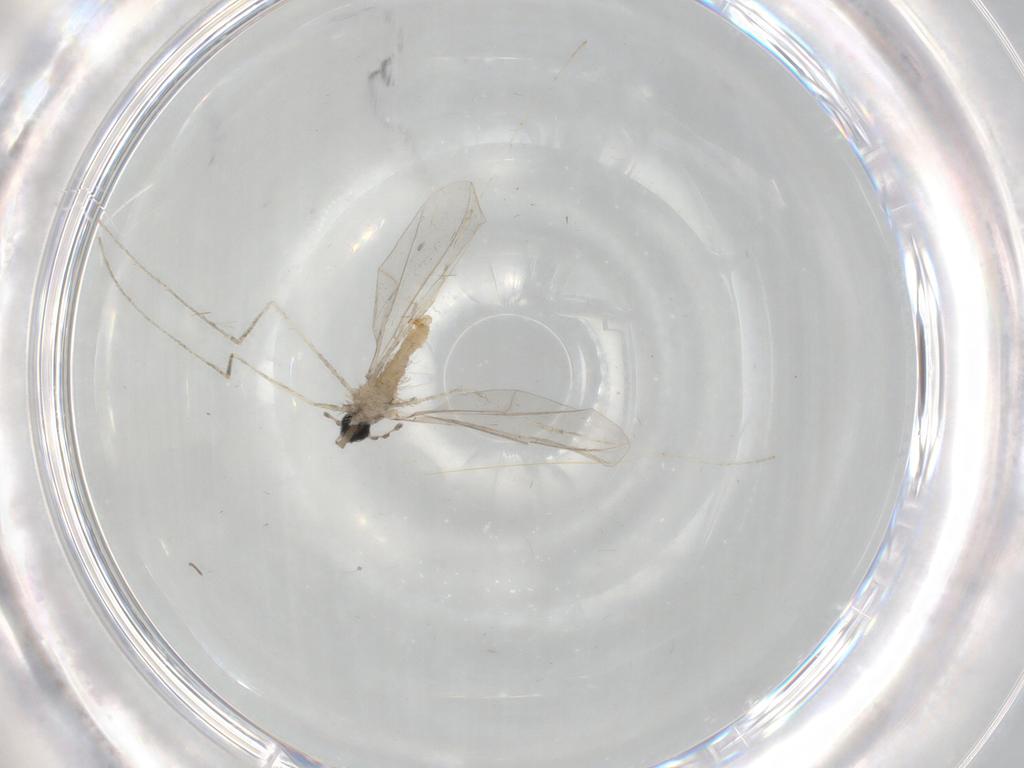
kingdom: Animalia
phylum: Arthropoda
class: Insecta
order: Diptera
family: Cecidomyiidae
